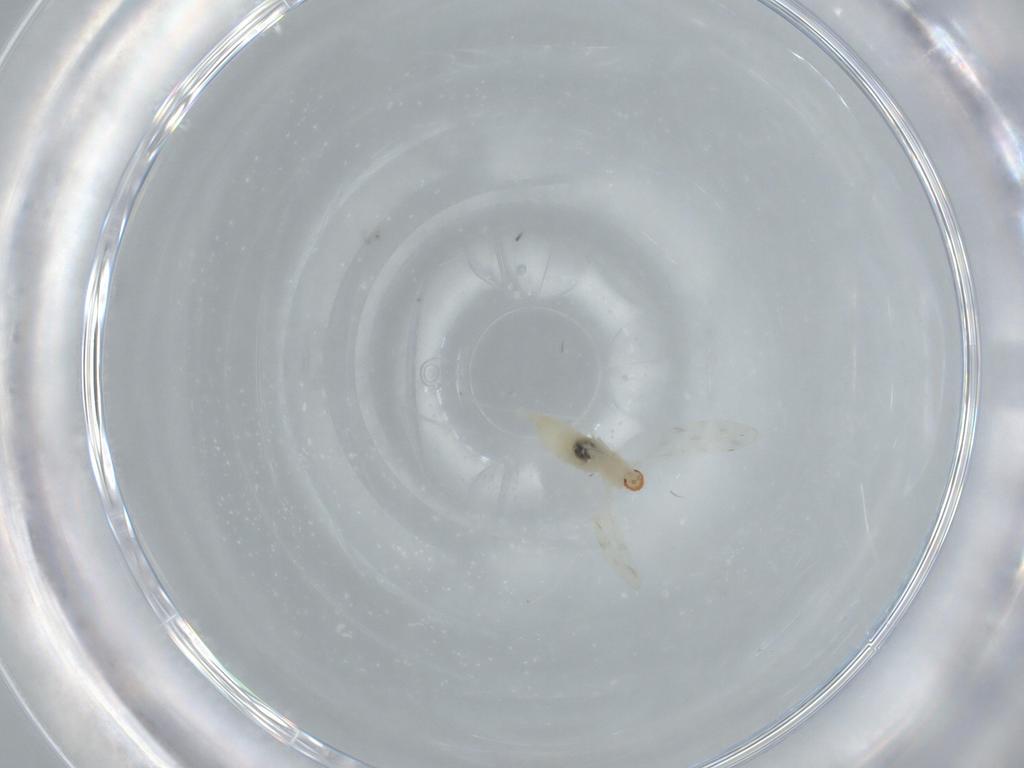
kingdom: Animalia
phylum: Arthropoda
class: Insecta
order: Diptera
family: Cecidomyiidae
